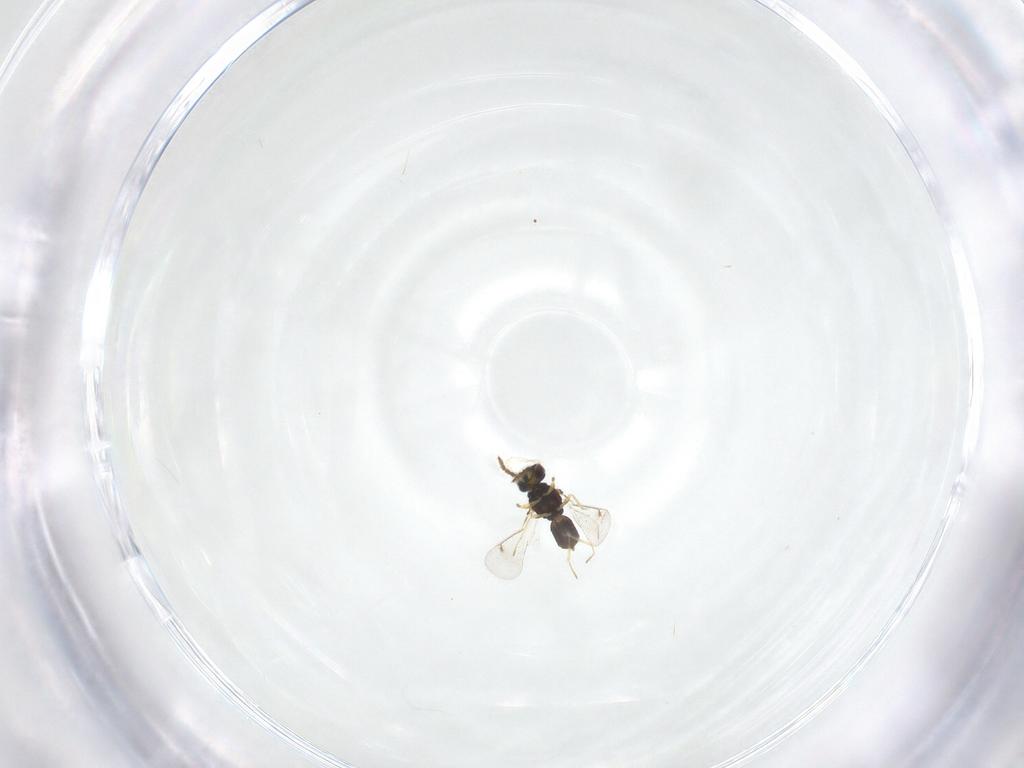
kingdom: Animalia
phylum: Arthropoda
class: Insecta
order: Hymenoptera
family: Eulophidae
